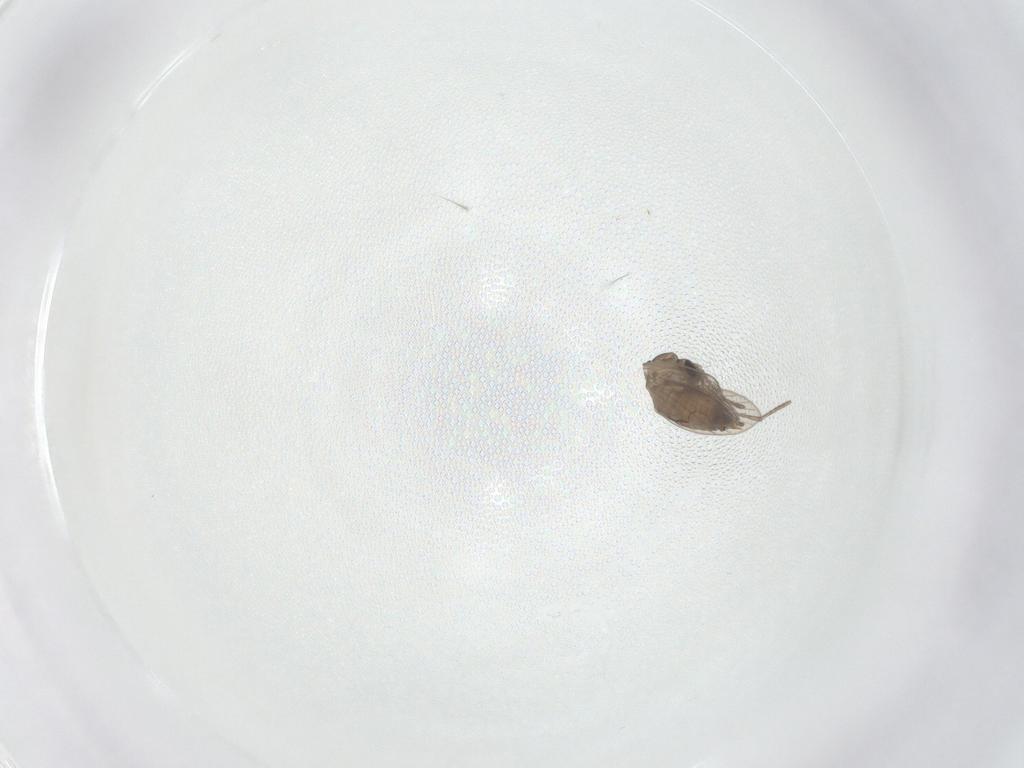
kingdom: Animalia
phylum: Arthropoda
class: Insecta
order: Diptera
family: Psychodidae
